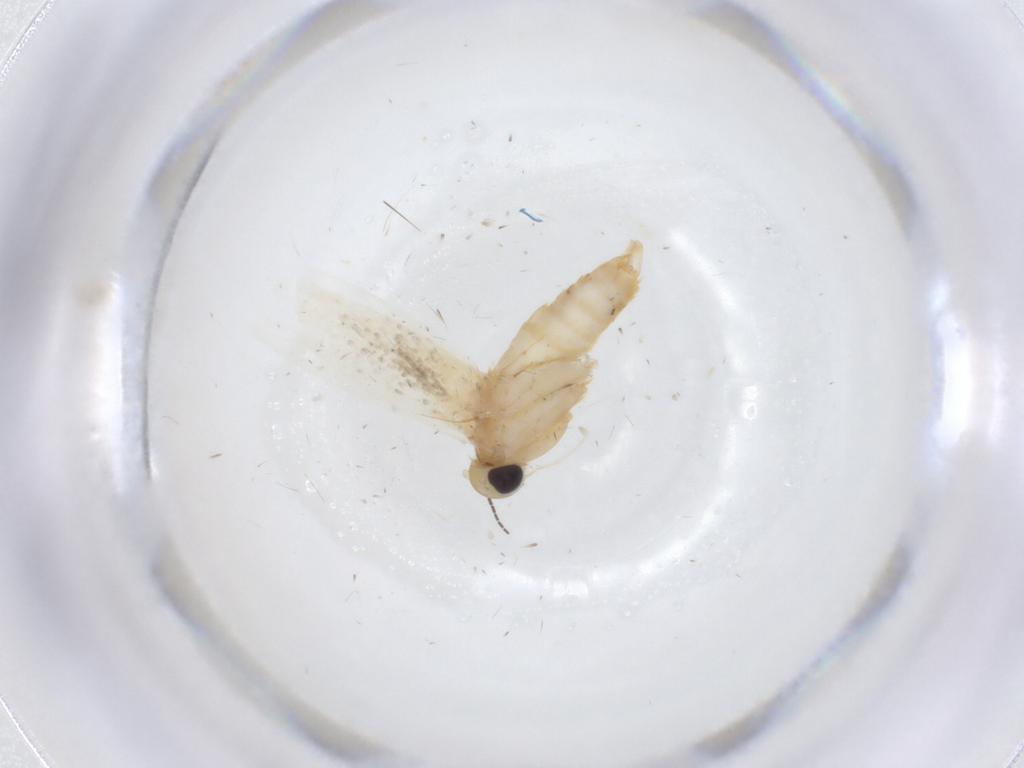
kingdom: Animalia
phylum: Arthropoda
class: Insecta
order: Lepidoptera
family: Erebidae
